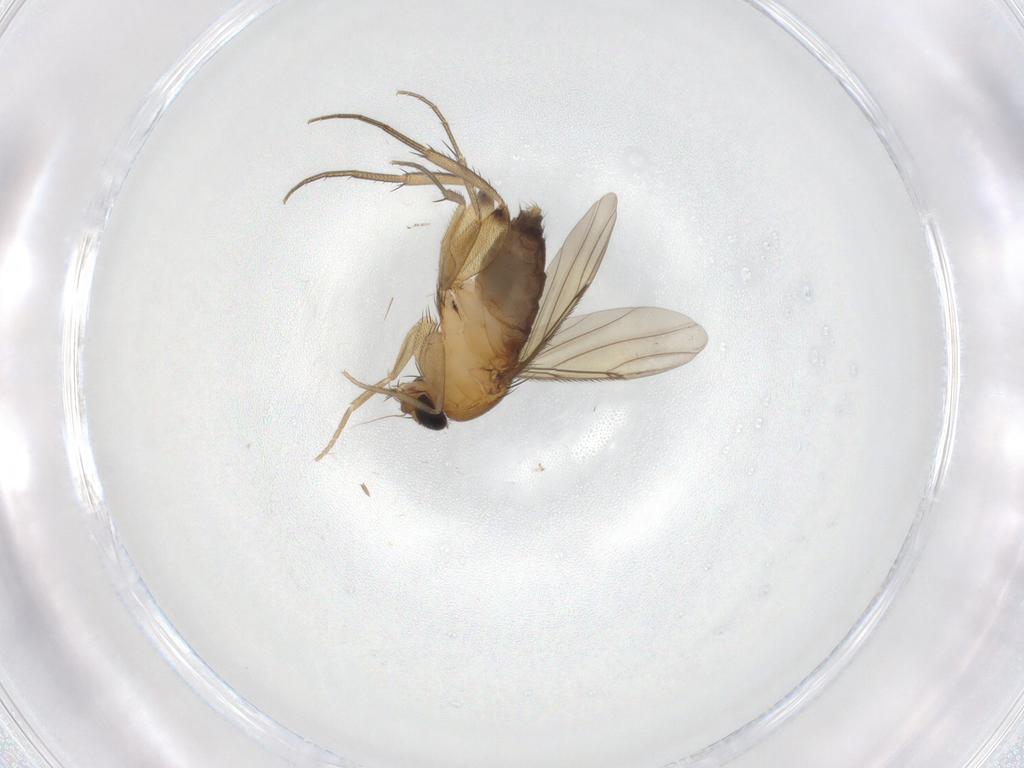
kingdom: Animalia
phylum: Arthropoda
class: Insecta
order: Diptera
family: Phoridae
